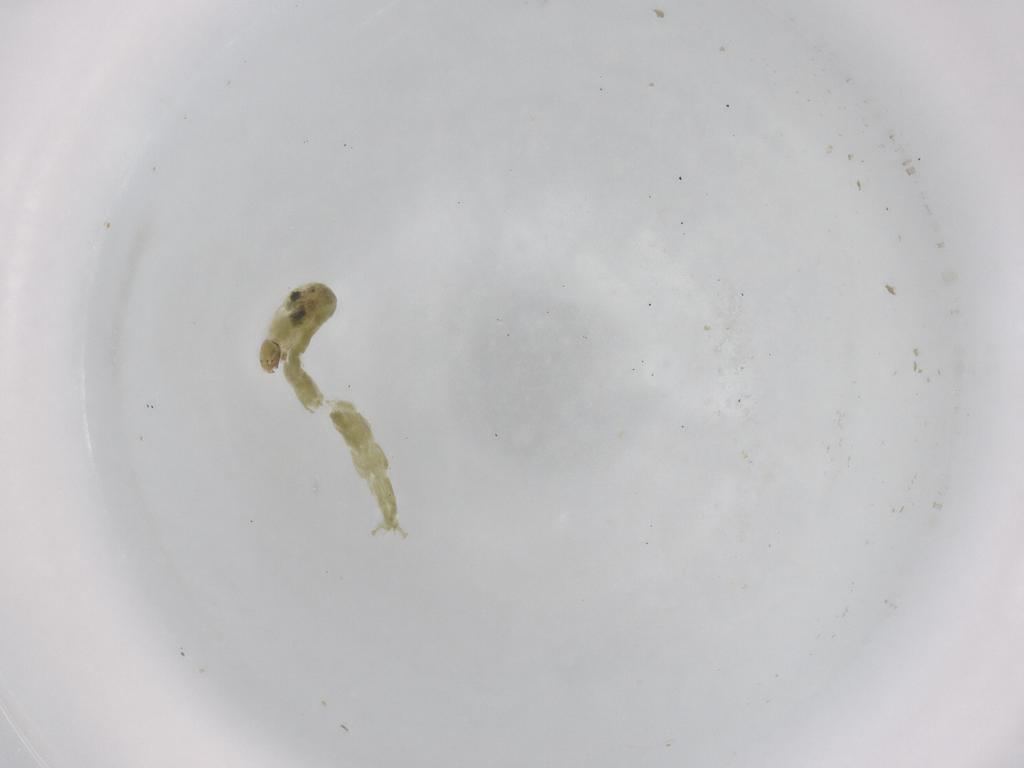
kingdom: Animalia
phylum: Arthropoda
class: Insecta
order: Diptera
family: Chironomidae
